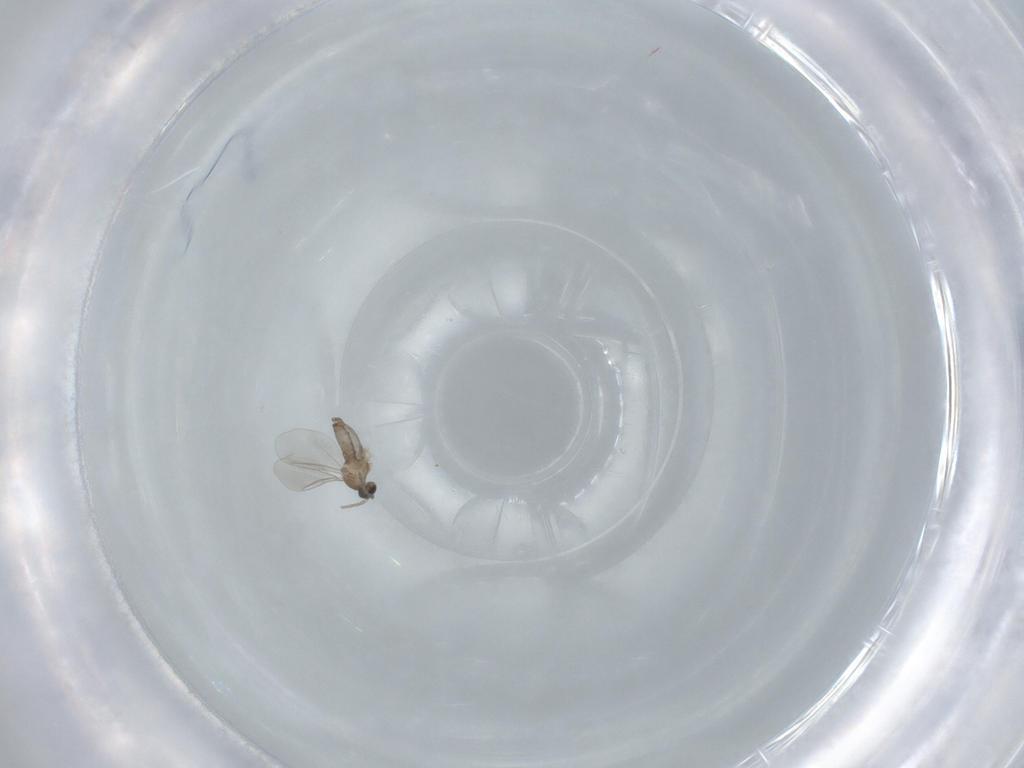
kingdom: Animalia
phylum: Arthropoda
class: Insecta
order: Diptera
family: Cecidomyiidae
